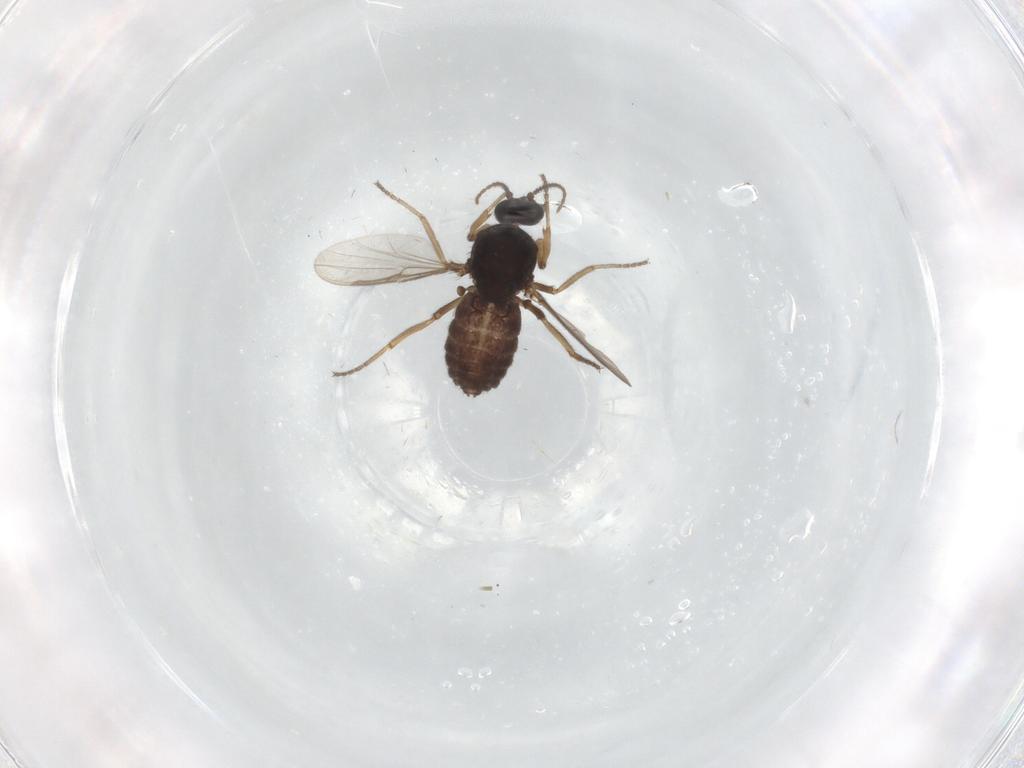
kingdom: Animalia
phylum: Arthropoda
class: Insecta
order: Diptera
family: Ceratopogonidae
